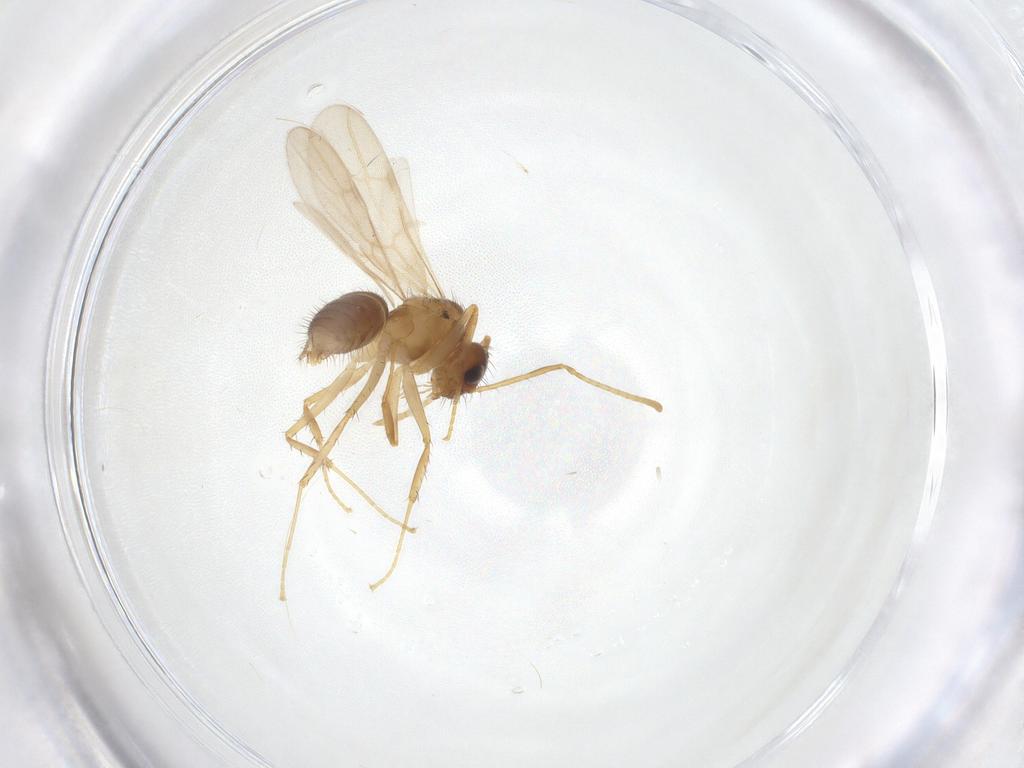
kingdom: Animalia
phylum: Arthropoda
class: Insecta
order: Hymenoptera
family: Formicidae
